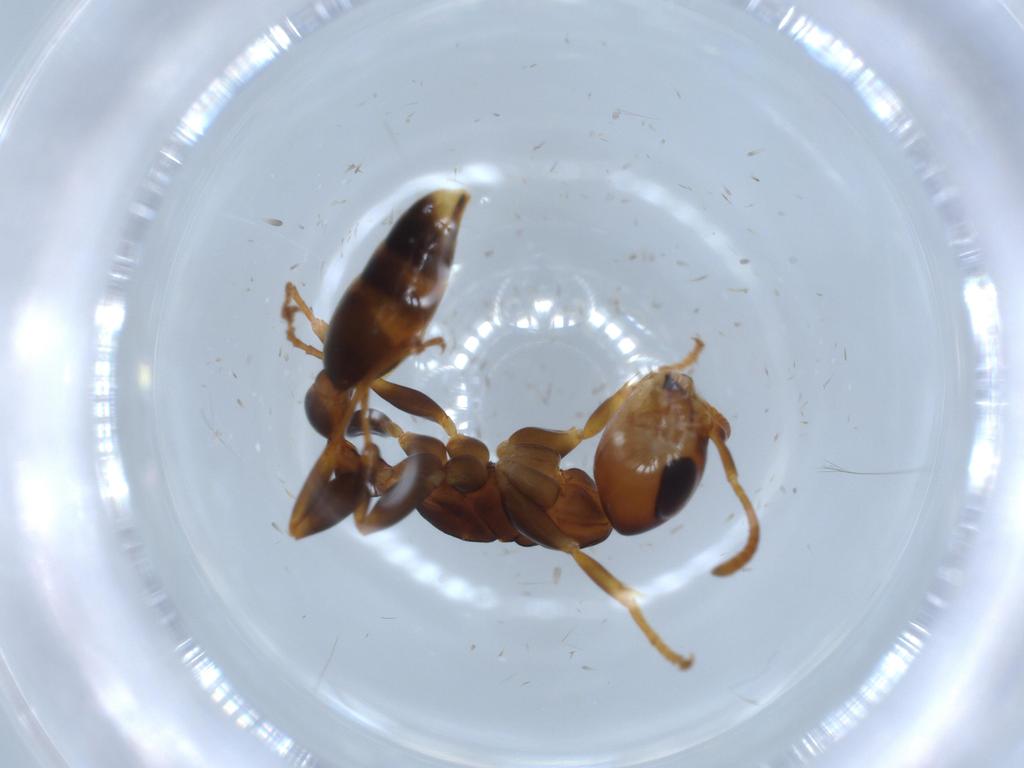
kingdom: Animalia
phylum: Arthropoda
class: Insecta
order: Hymenoptera
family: Formicidae
